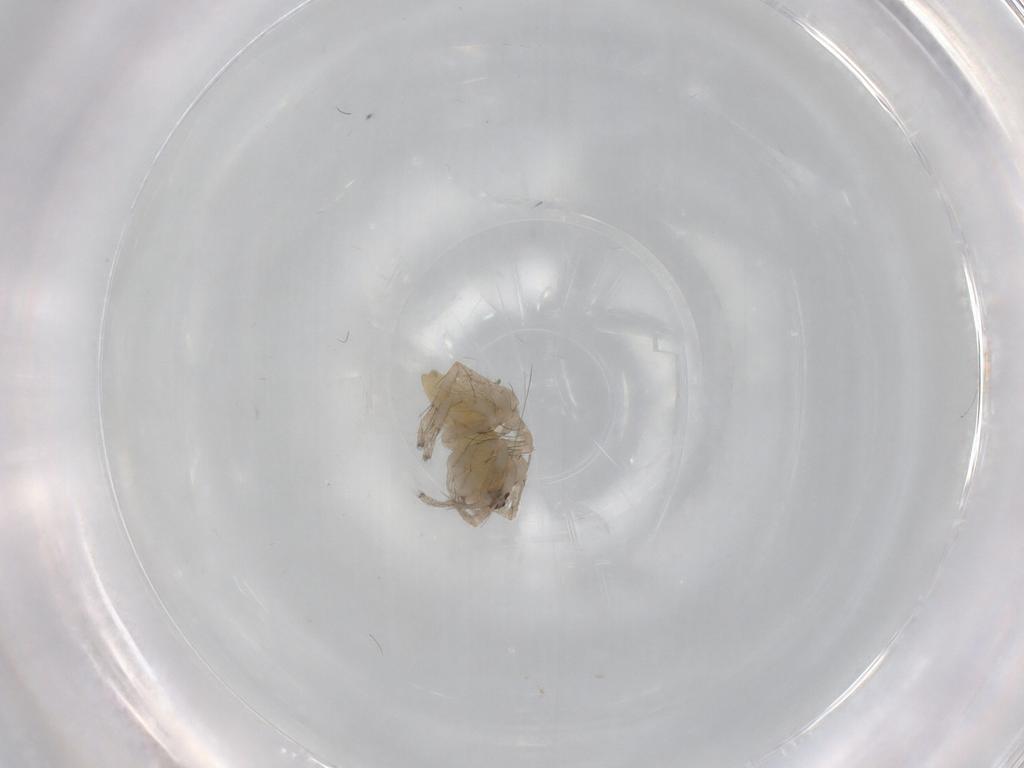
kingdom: Animalia
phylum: Arthropoda
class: Arachnida
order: Araneae
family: Anyphaenidae
